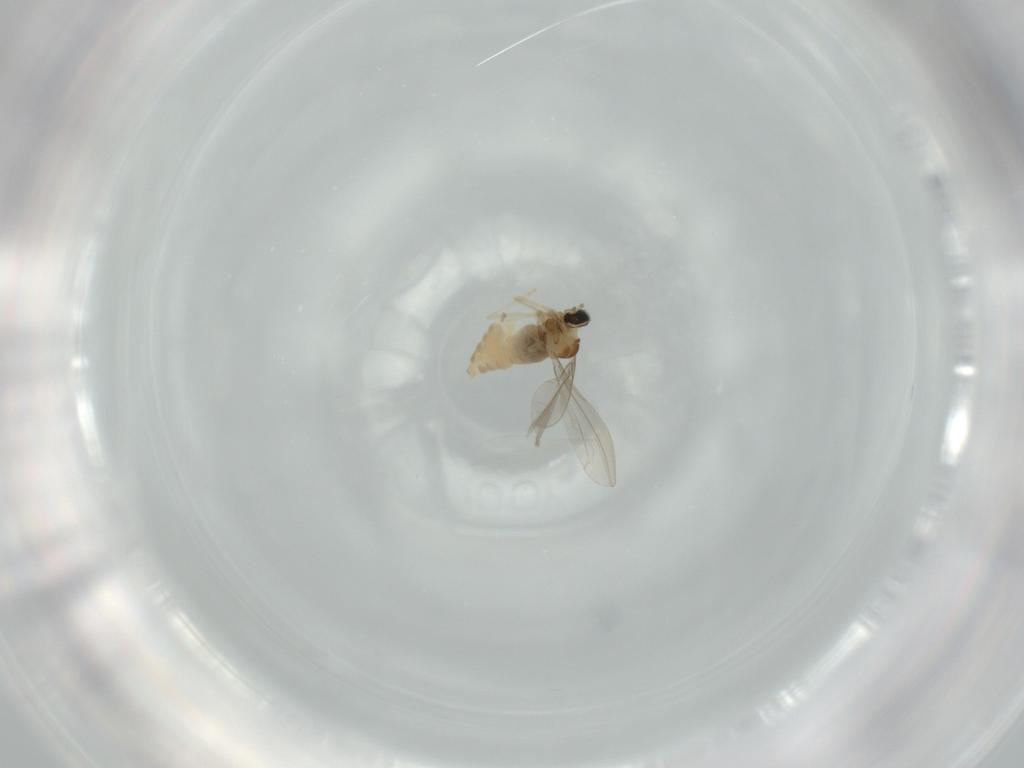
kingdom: Animalia
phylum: Arthropoda
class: Insecta
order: Diptera
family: Cecidomyiidae
